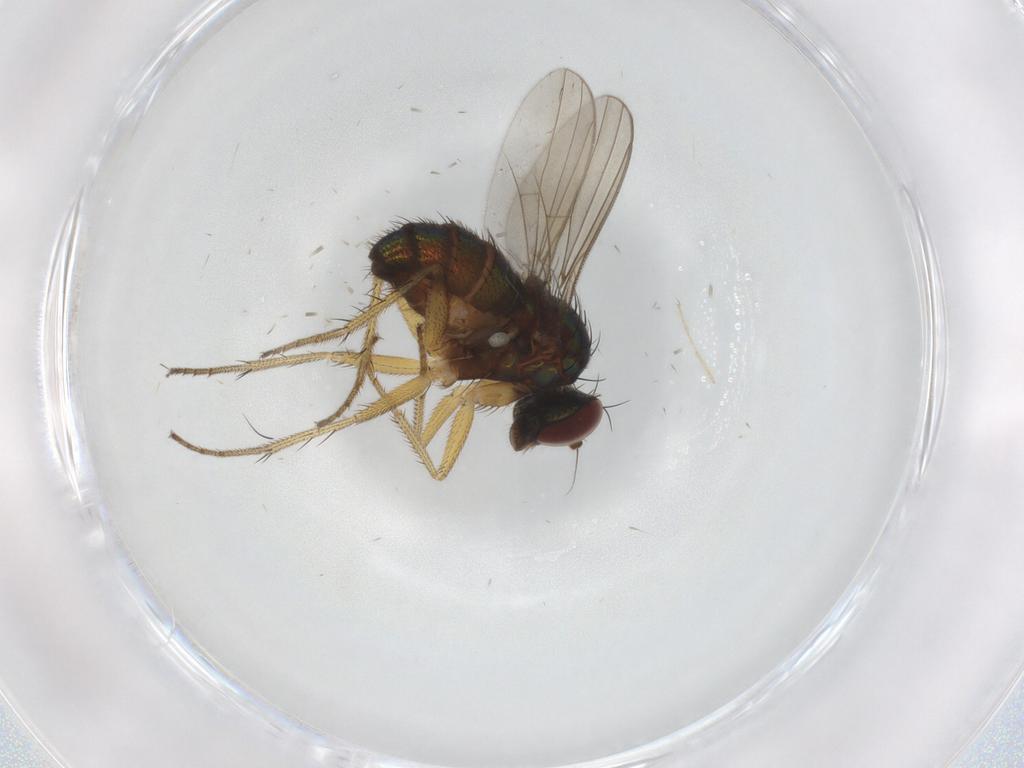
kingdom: Animalia
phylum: Arthropoda
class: Insecta
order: Diptera
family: Dolichopodidae
